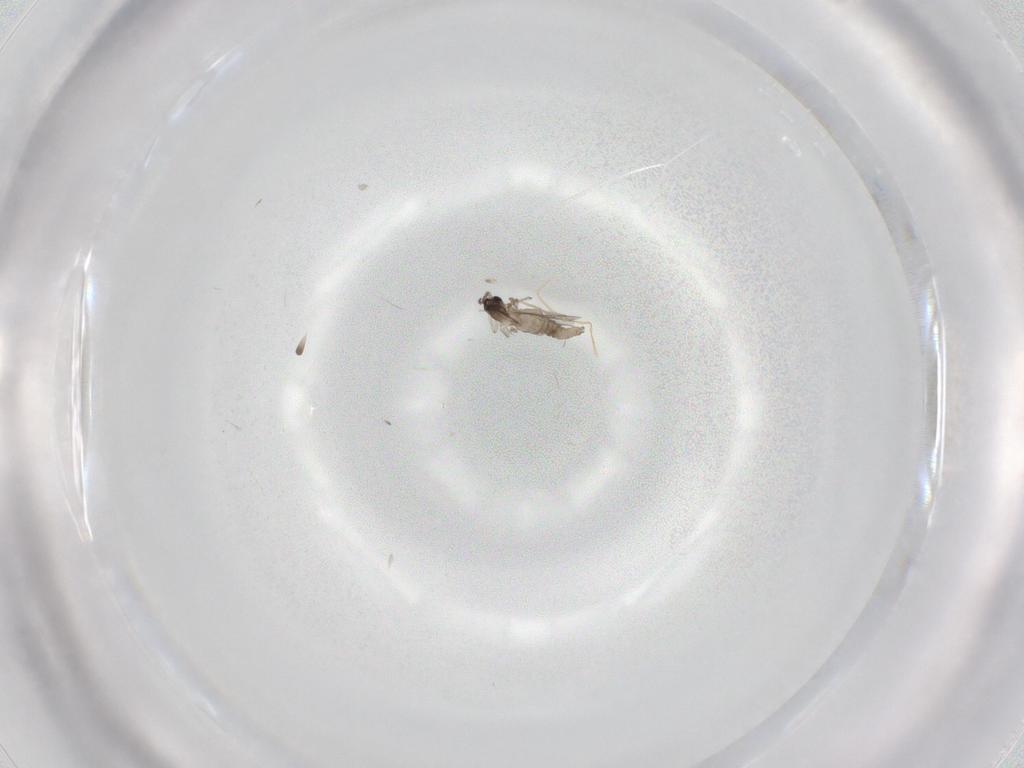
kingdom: Animalia
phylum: Arthropoda
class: Insecta
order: Diptera
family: Cecidomyiidae
